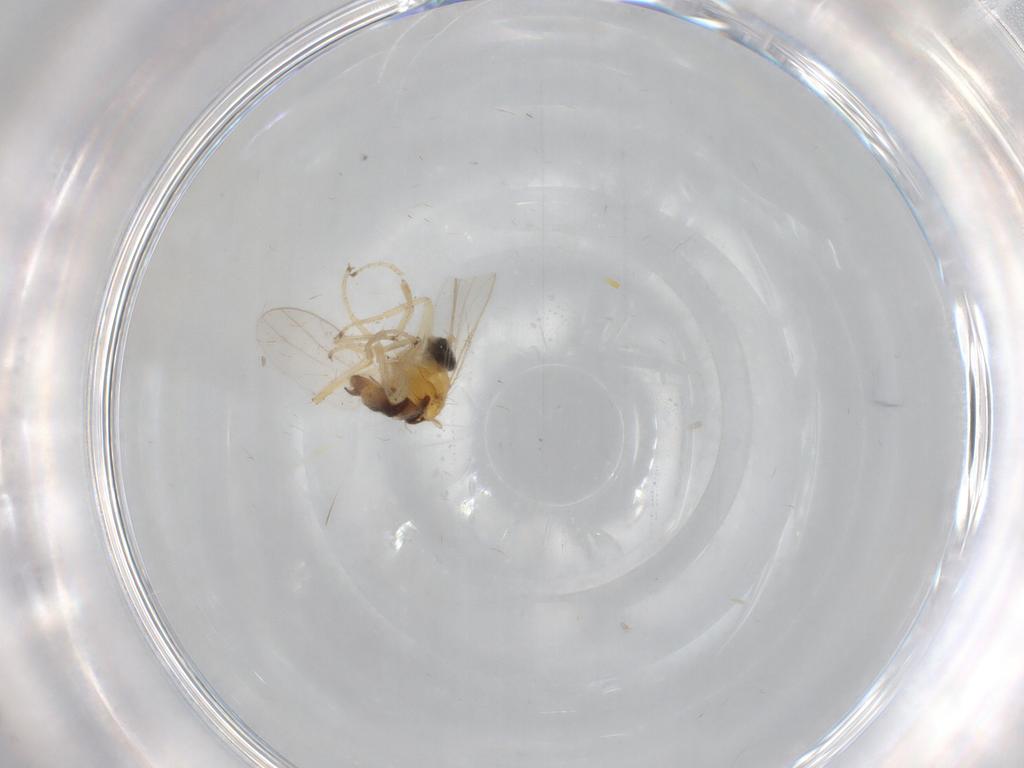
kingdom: Animalia
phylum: Arthropoda
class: Insecta
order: Diptera
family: Hybotidae
